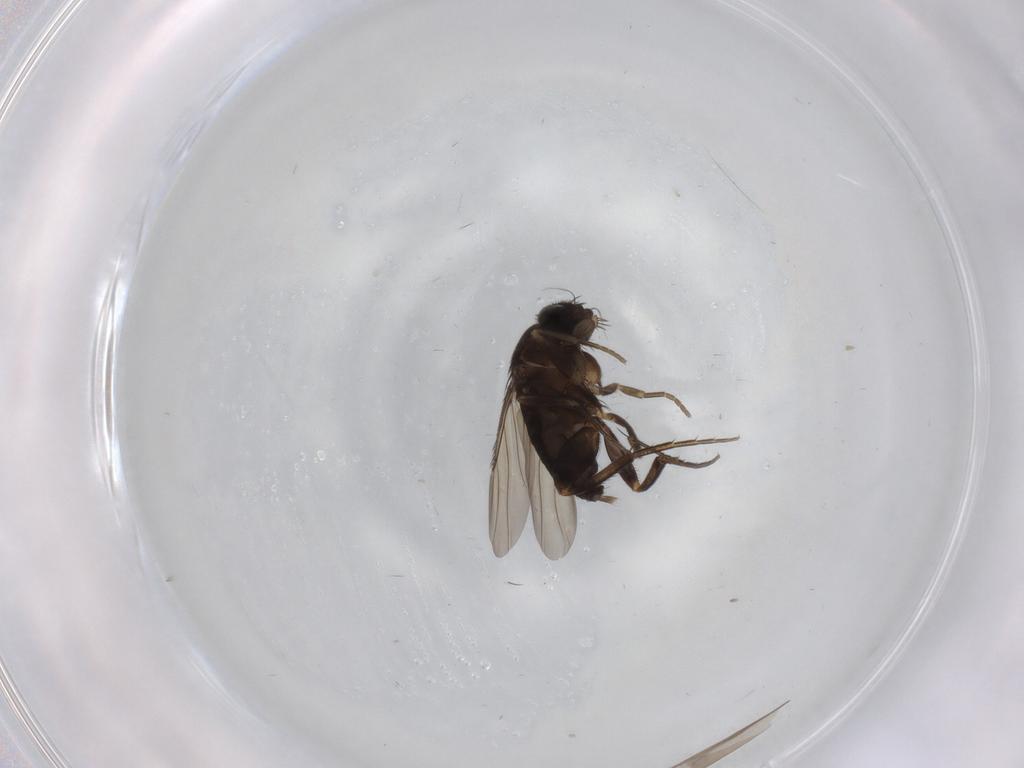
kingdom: Animalia
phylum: Arthropoda
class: Insecta
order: Diptera
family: Phoridae
